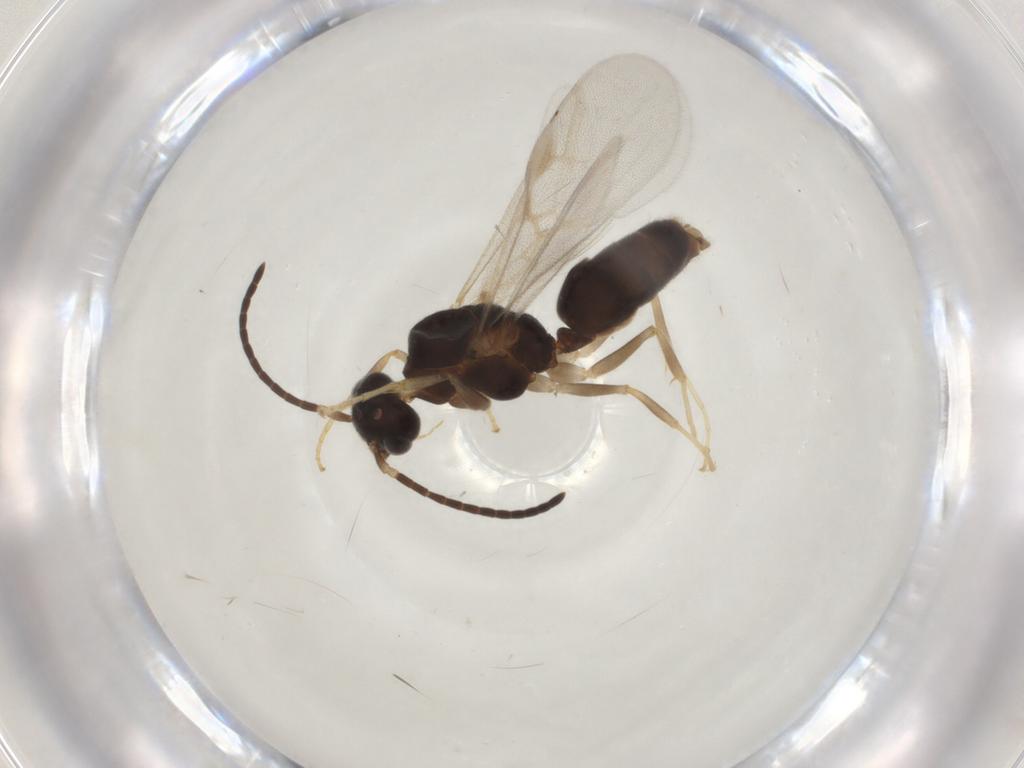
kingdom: Animalia
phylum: Arthropoda
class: Insecta
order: Hymenoptera
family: Formicidae
